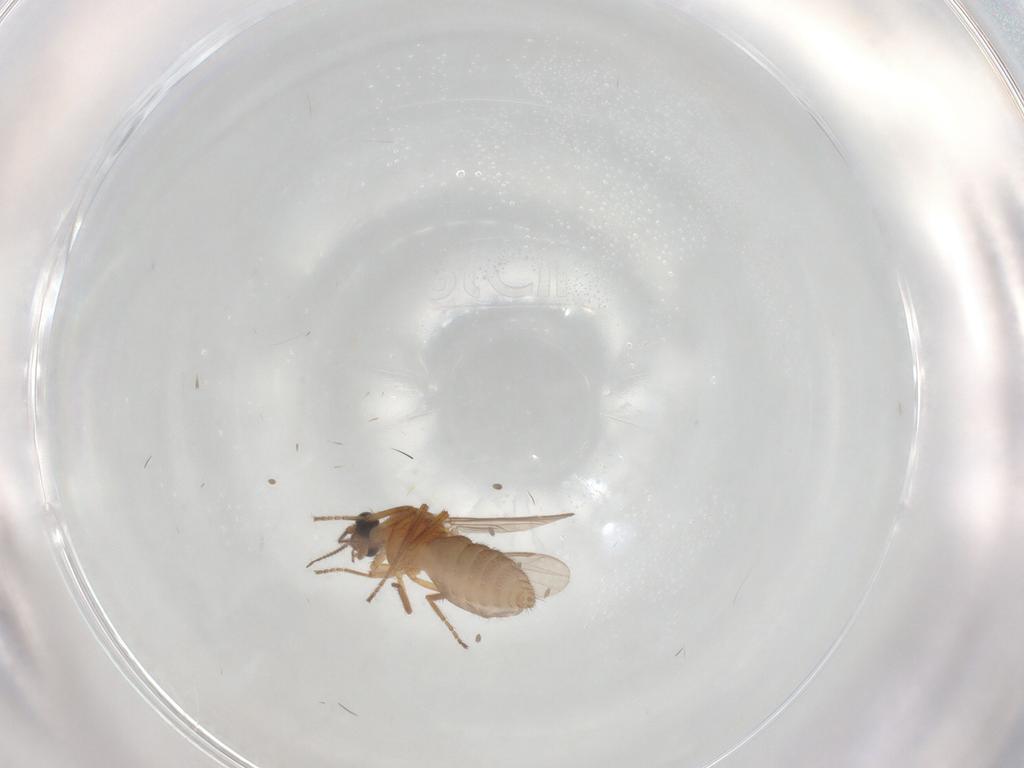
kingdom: Animalia
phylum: Arthropoda
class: Insecta
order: Diptera
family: Ceratopogonidae
